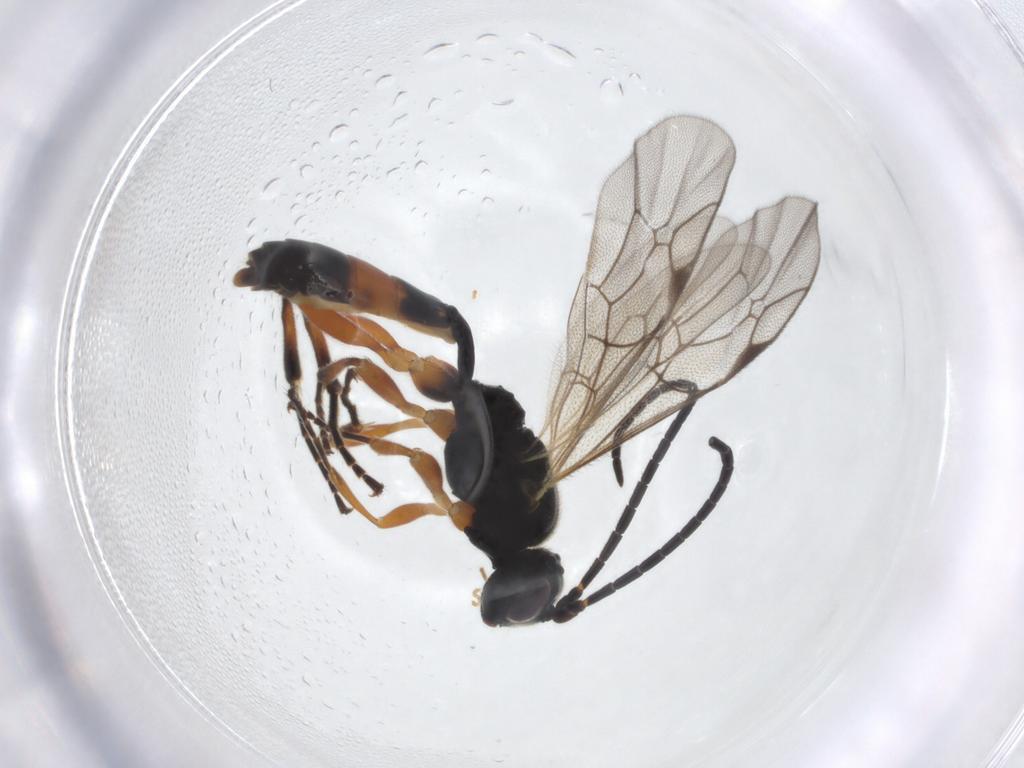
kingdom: Animalia
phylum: Arthropoda
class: Insecta
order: Hymenoptera
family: Ichneumonidae
